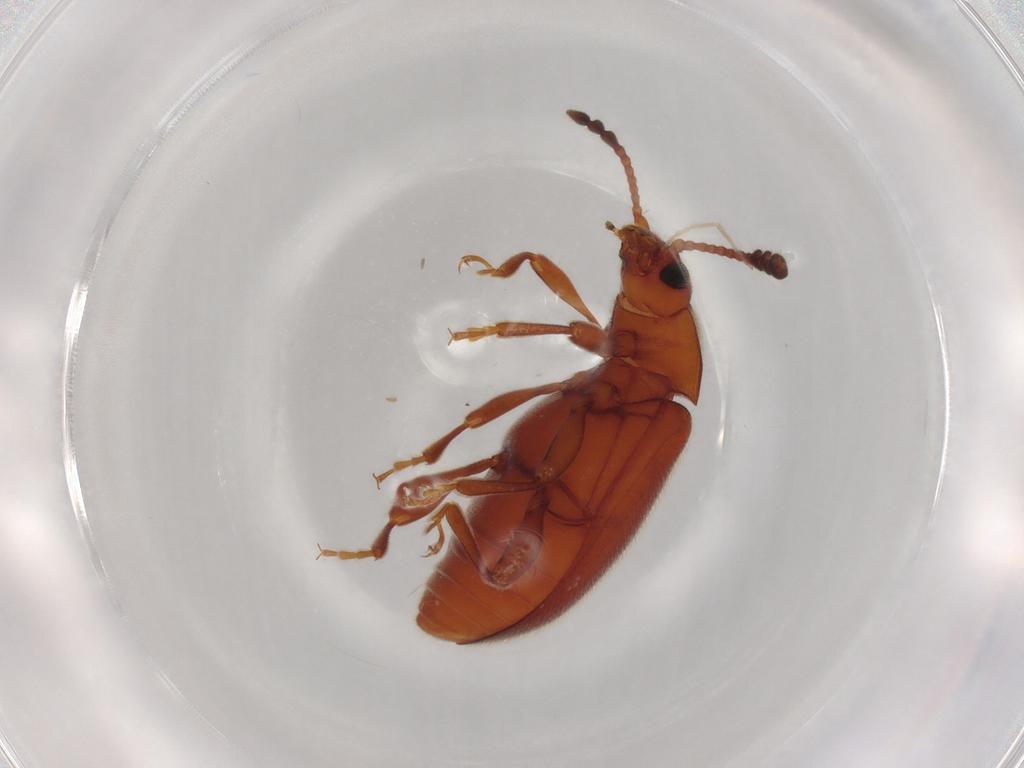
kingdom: Animalia
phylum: Arthropoda
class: Insecta
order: Coleoptera
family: Endomychidae
